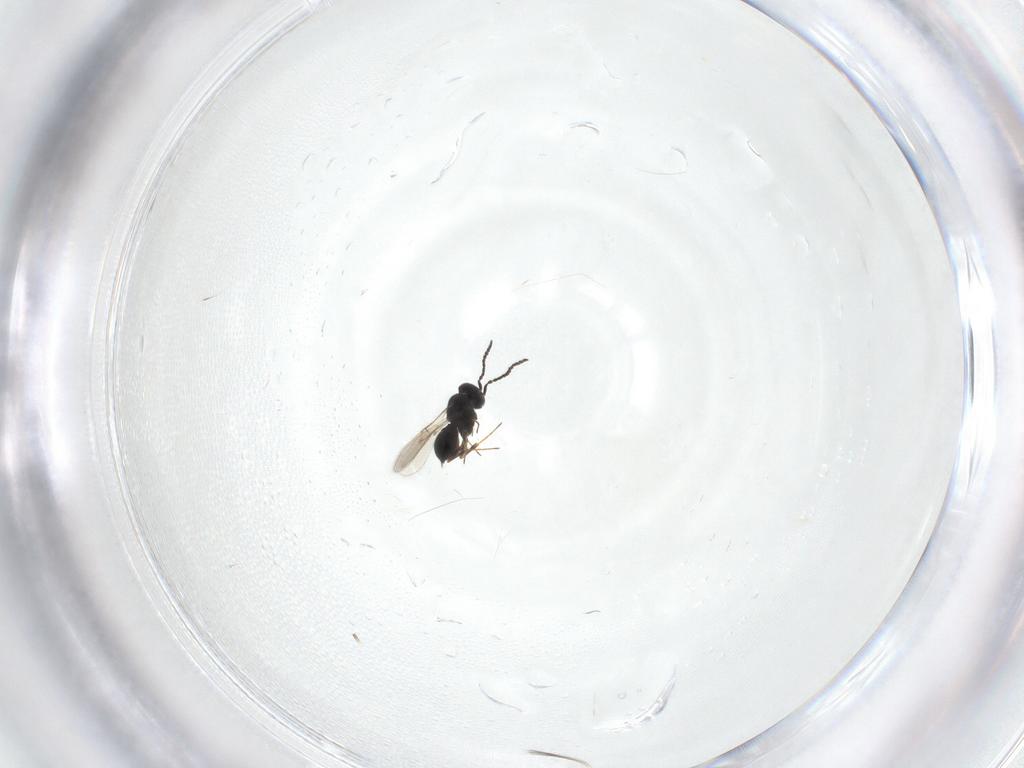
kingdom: Animalia
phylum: Arthropoda
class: Insecta
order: Hymenoptera
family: Scelionidae
